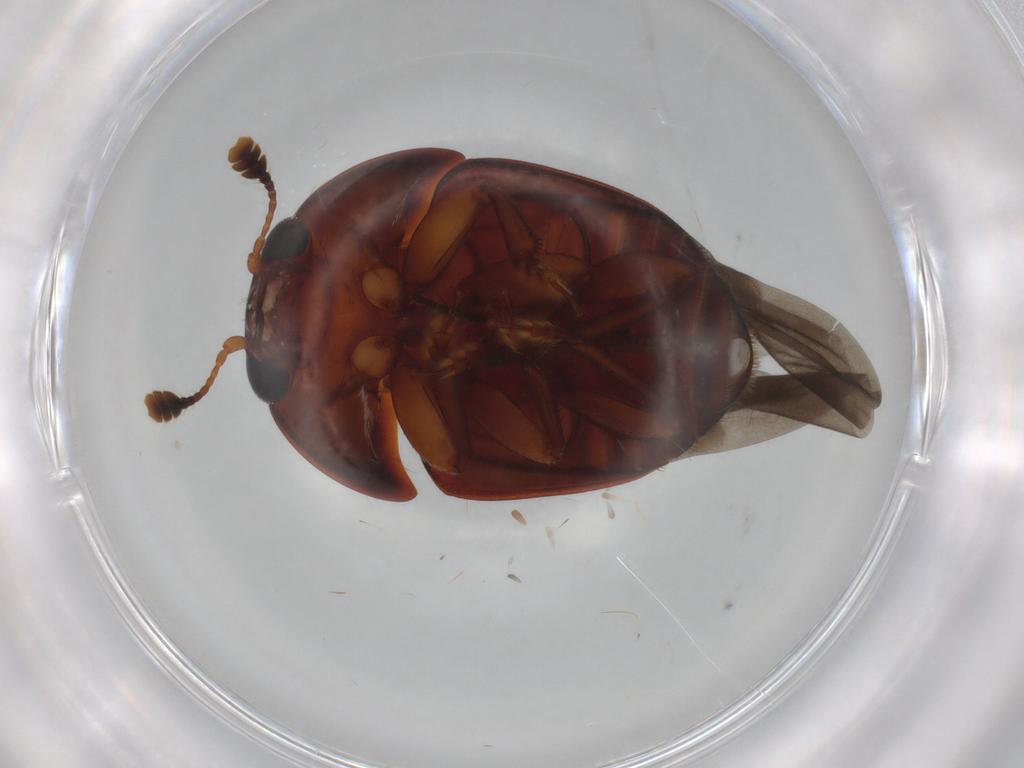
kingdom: Animalia
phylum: Arthropoda
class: Insecta
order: Coleoptera
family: Nitidulidae
